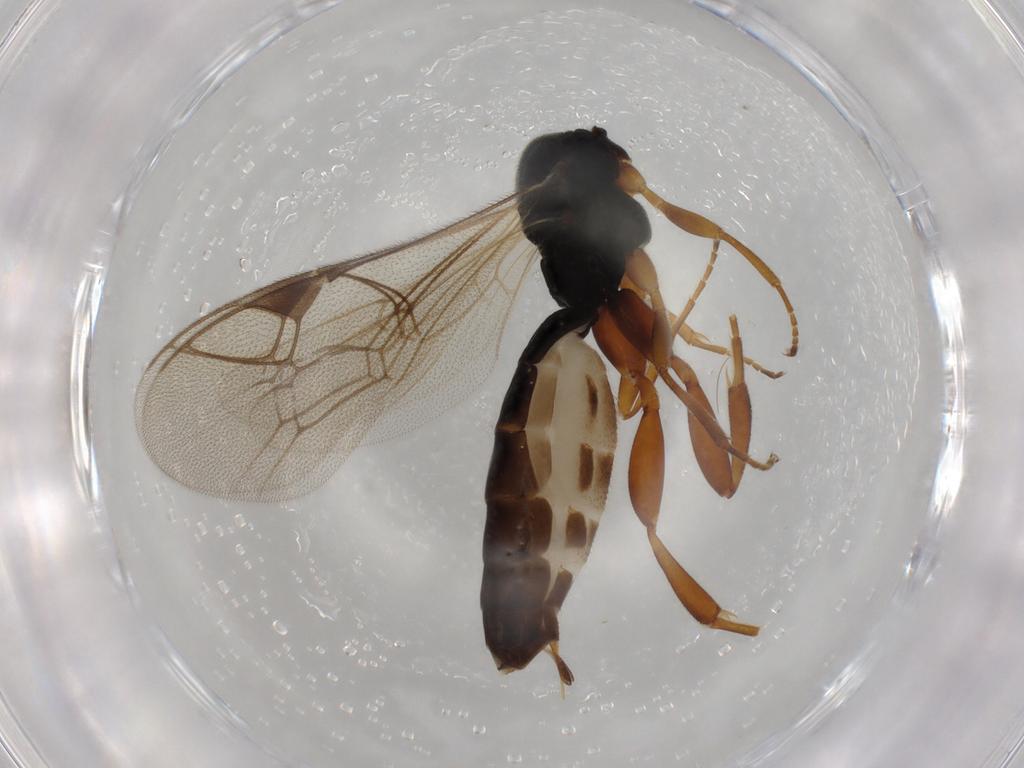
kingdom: Animalia
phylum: Arthropoda
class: Insecta
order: Hymenoptera
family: Ichneumonidae
